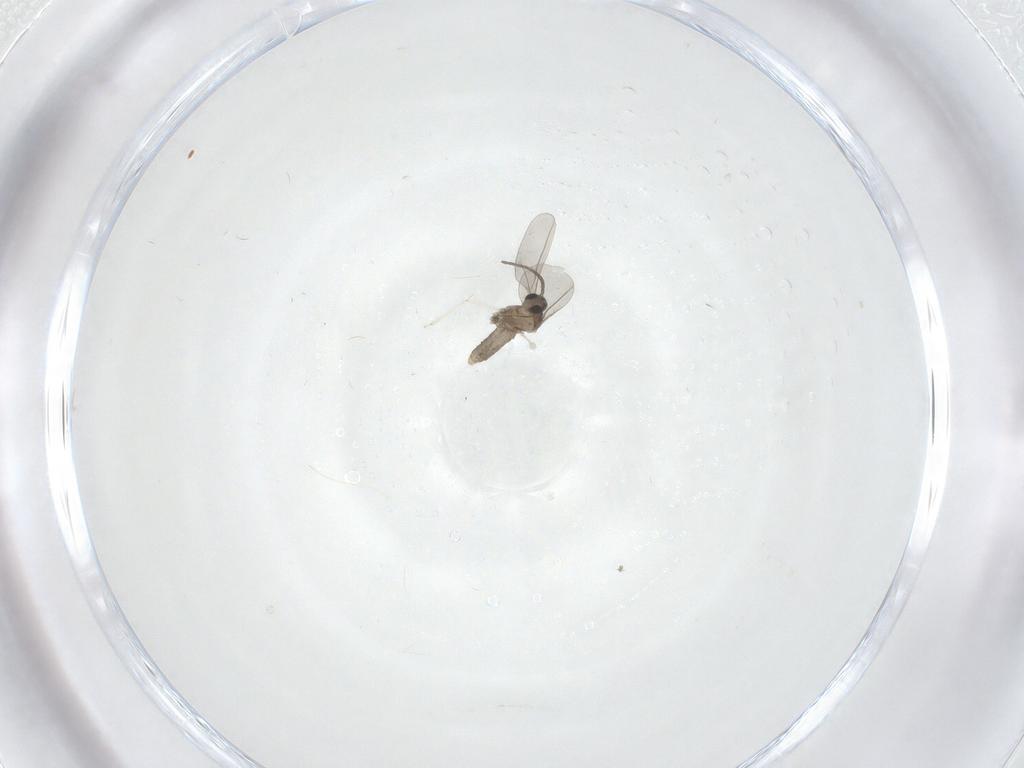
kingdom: Animalia
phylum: Arthropoda
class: Insecta
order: Diptera
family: Cecidomyiidae
